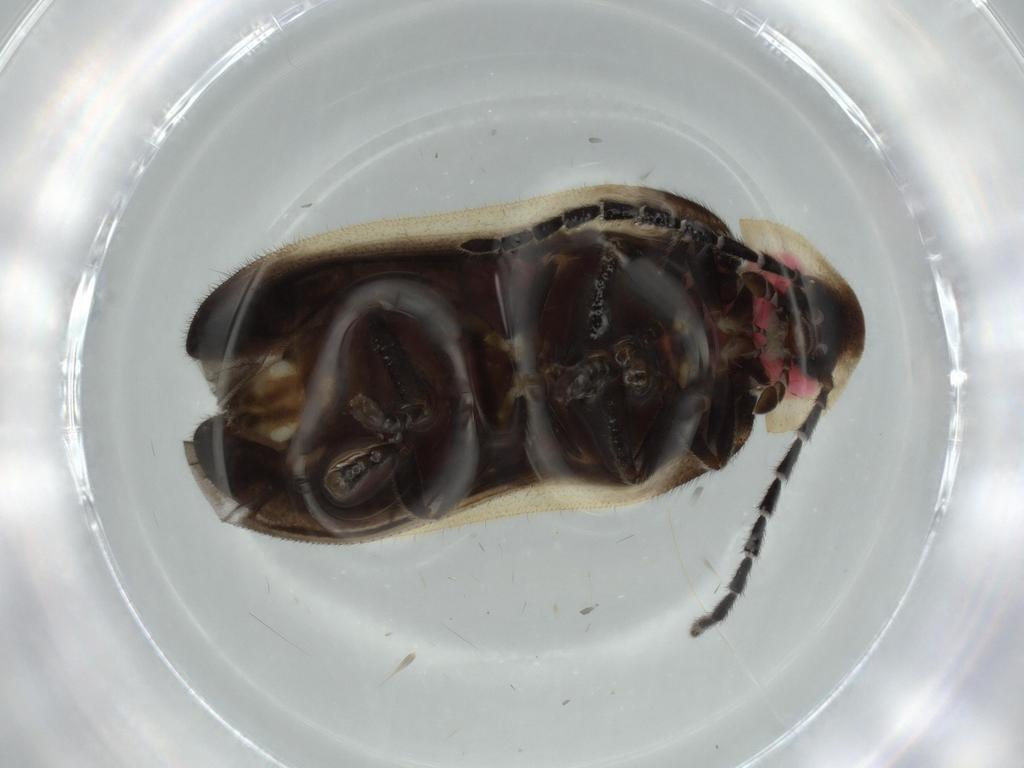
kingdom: Animalia
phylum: Arthropoda
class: Insecta
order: Coleoptera
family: Lampyridae
